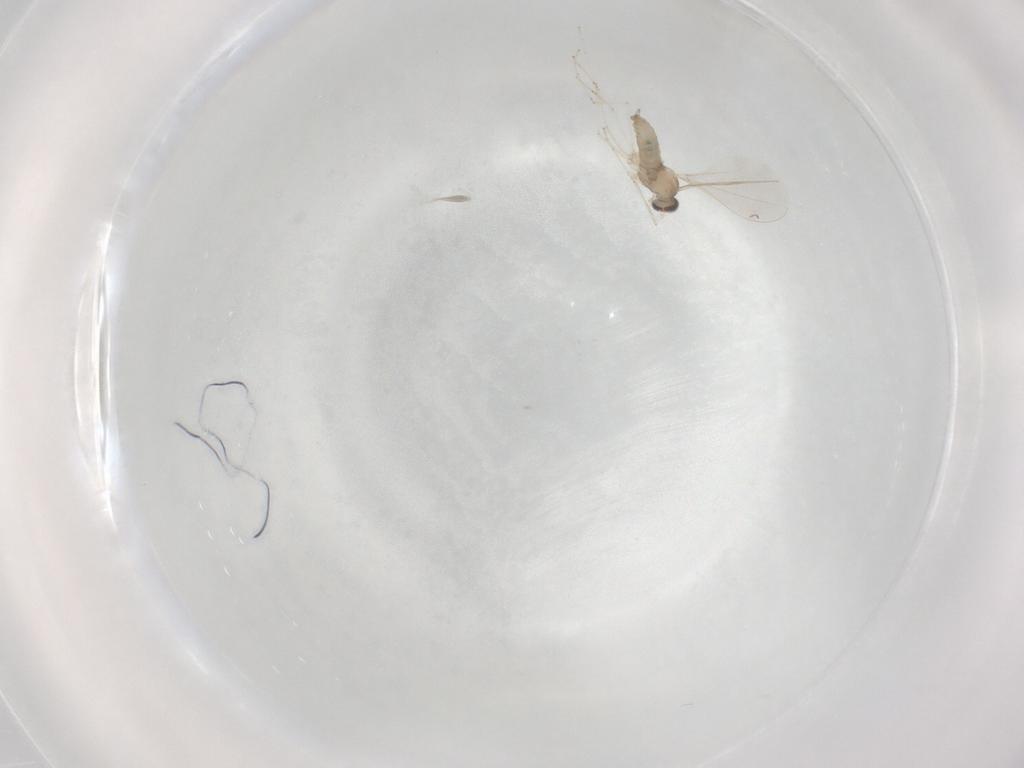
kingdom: Animalia
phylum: Arthropoda
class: Insecta
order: Diptera
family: Cecidomyiidae
